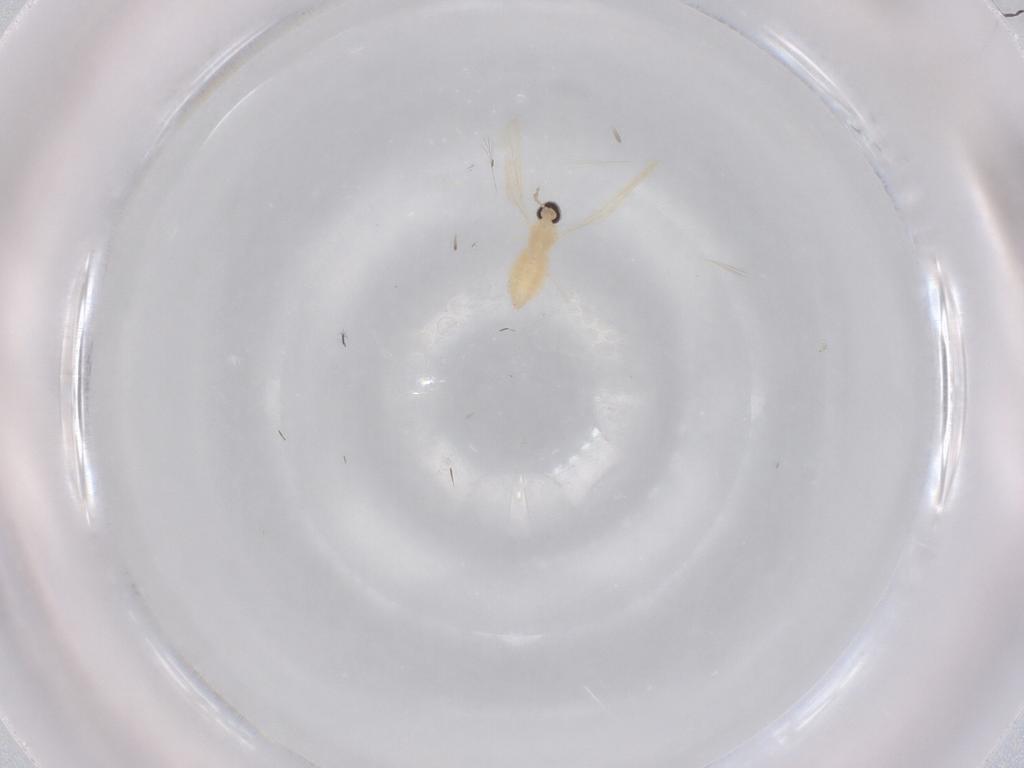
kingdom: Animalia
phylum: Arthropoda
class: Insecta
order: Diptera
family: Cecidomyiidae
